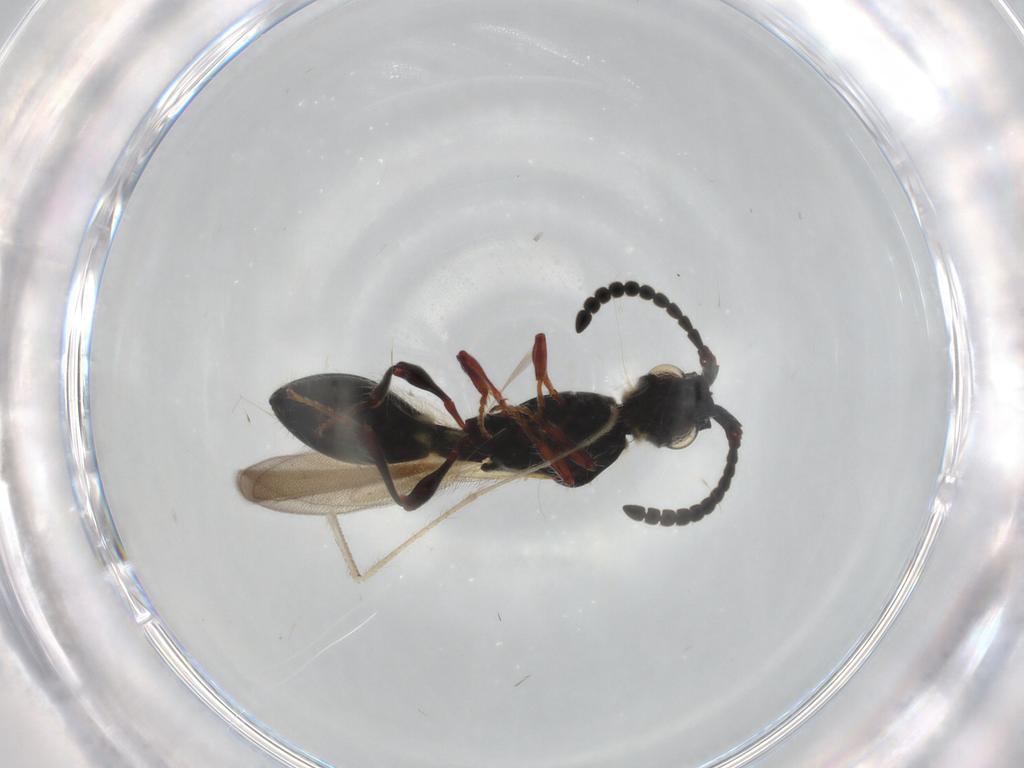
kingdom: Animalia
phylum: Arthropoda
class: Insecta
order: Hymenoptera
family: Diapriidae
